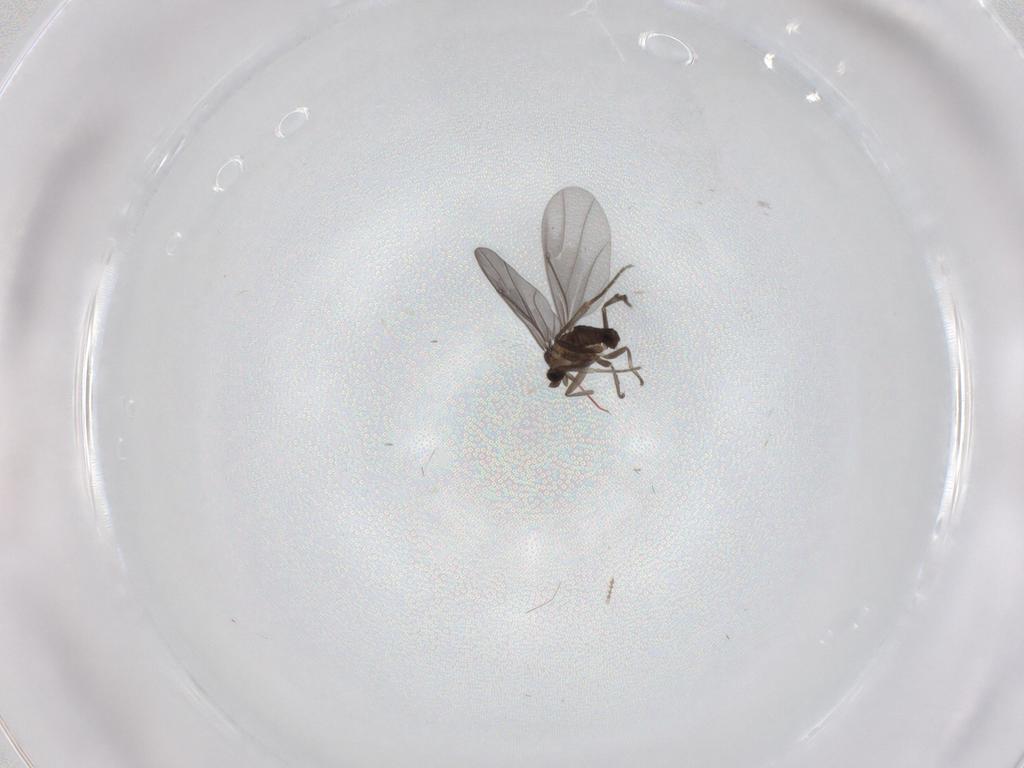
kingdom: Animalia
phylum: Arthropoda
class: Insecta
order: Diptera
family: Phoridae
